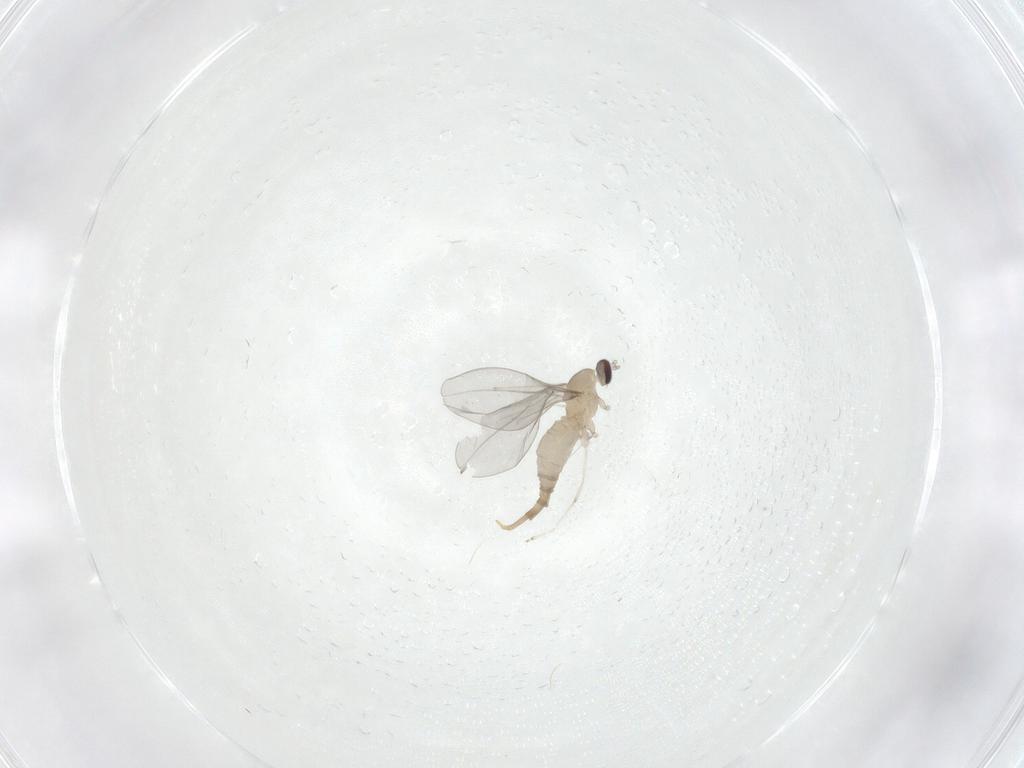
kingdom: Animalia
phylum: Arthropoda
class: Insecta
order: Diptera
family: Cecidomyiidae
